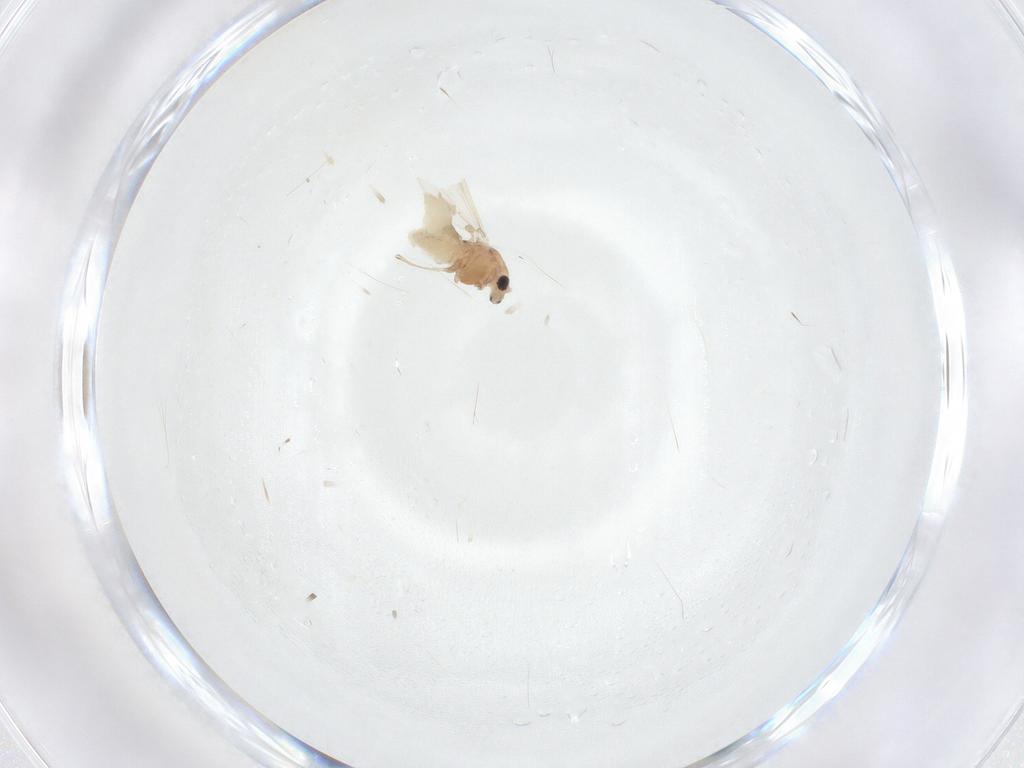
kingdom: Animalia
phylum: Arthropoda
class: Insecta
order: Diptera
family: Chironomidae
